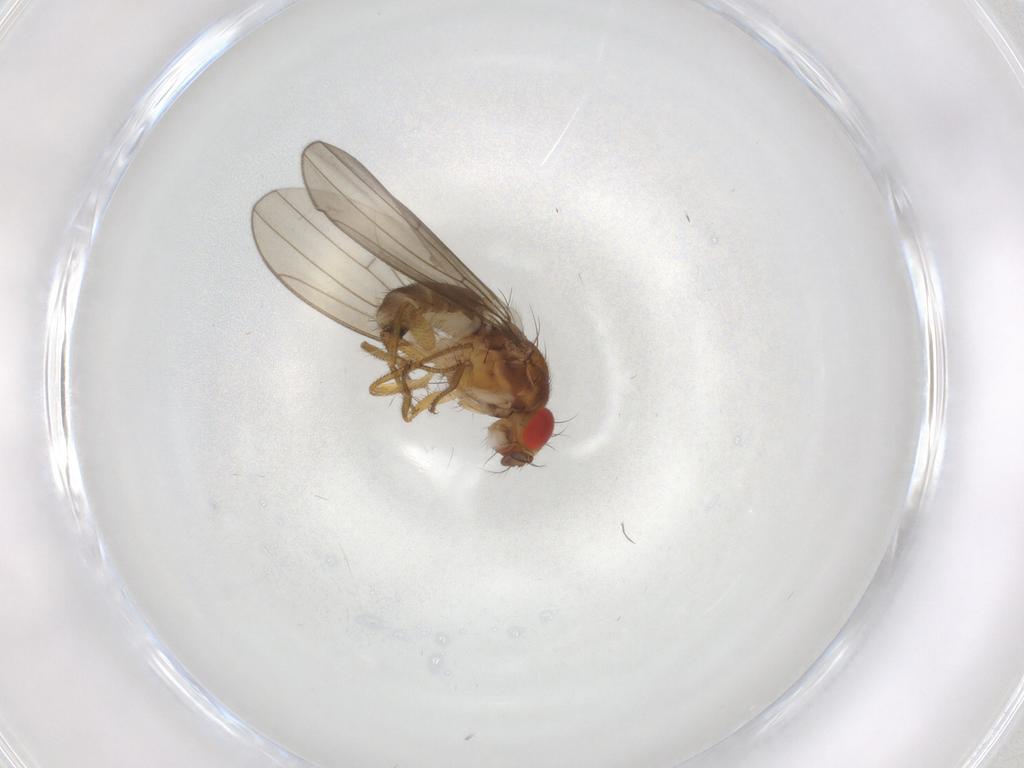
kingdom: Animalia
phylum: Arthropoda
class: Insecta
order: Diptera
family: Drosophilidae
